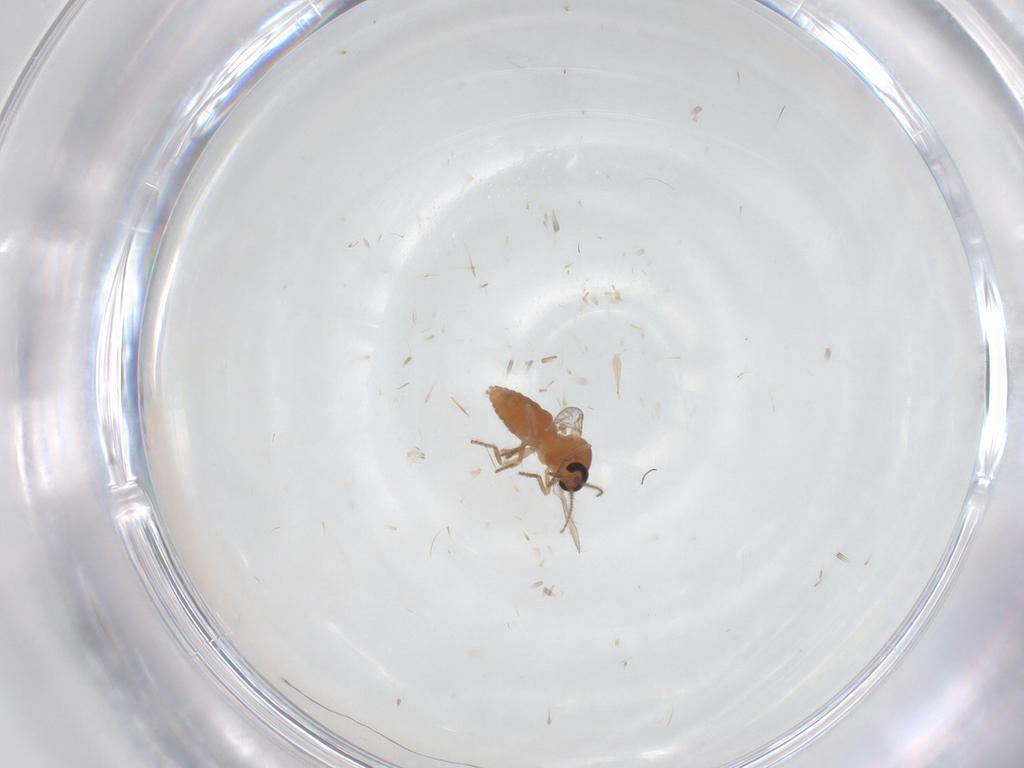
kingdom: Animalia
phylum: Arthropoda
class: Insecta
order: Diptera
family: Ceratopogonidae
